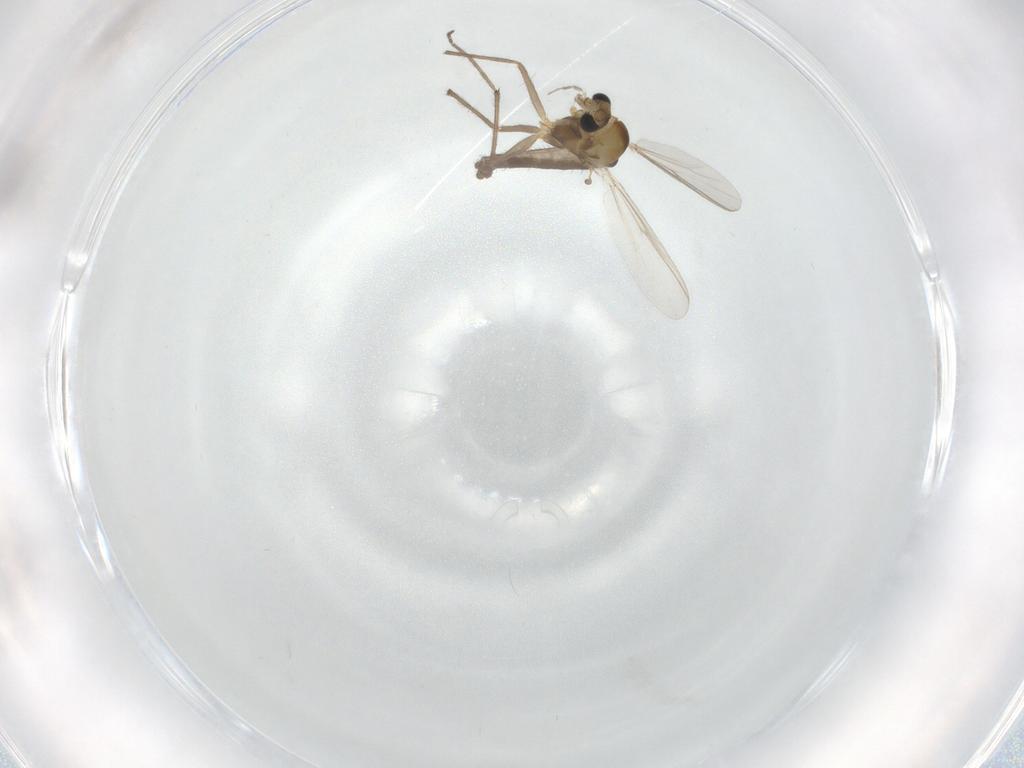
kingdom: Animalia
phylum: Arthropoda
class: Insecta
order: Diptera
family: Chironomidae
